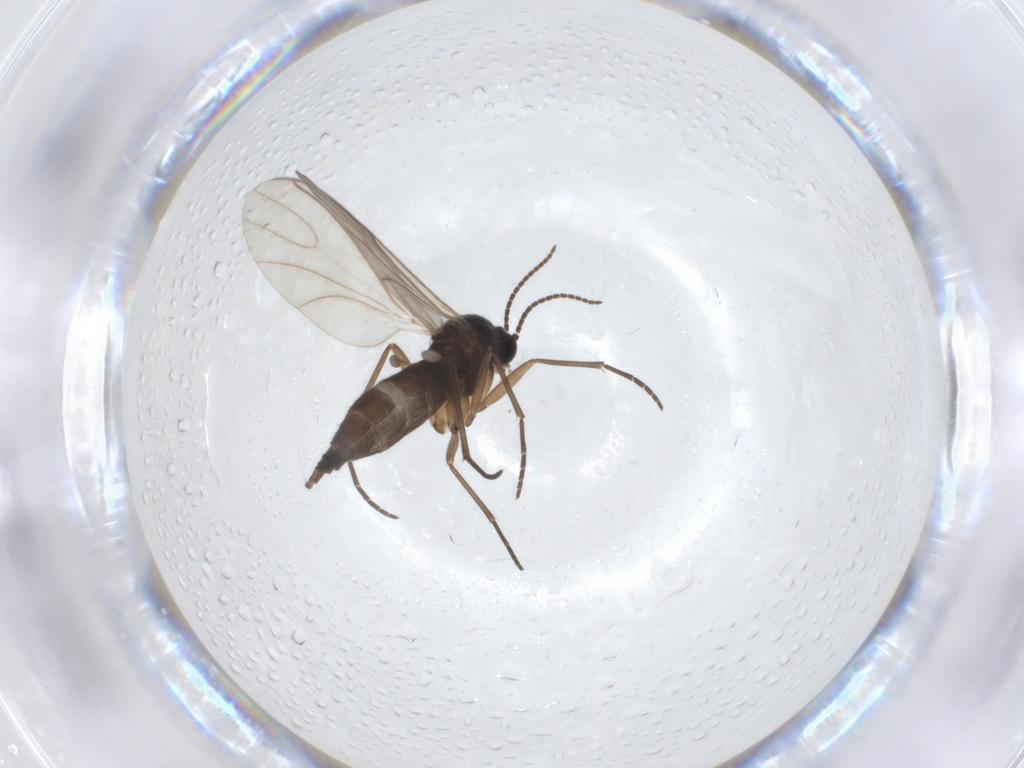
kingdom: Animalia
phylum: Arthropoda
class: Insecta
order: Diptera
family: Sciaridae
